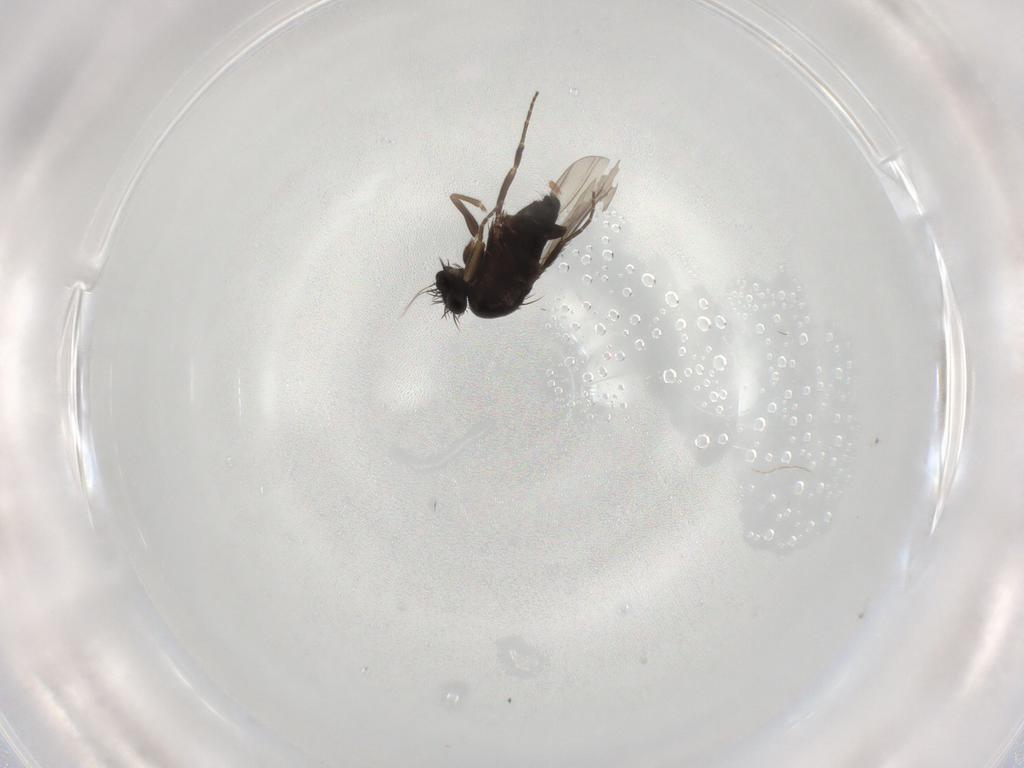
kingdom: Animalia
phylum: Arthropoda
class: Insecta
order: Diptera
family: Phoridae
